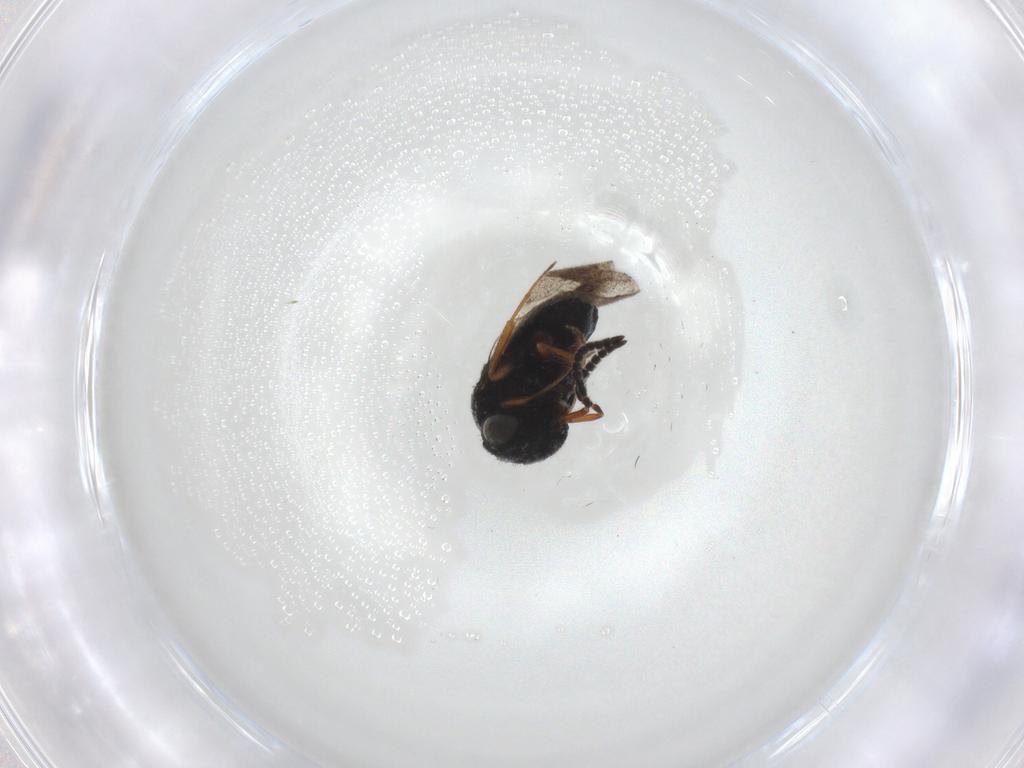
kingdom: Animalia
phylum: Arthropoda
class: Insecta
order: Hymenoptera
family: Scelionidae
